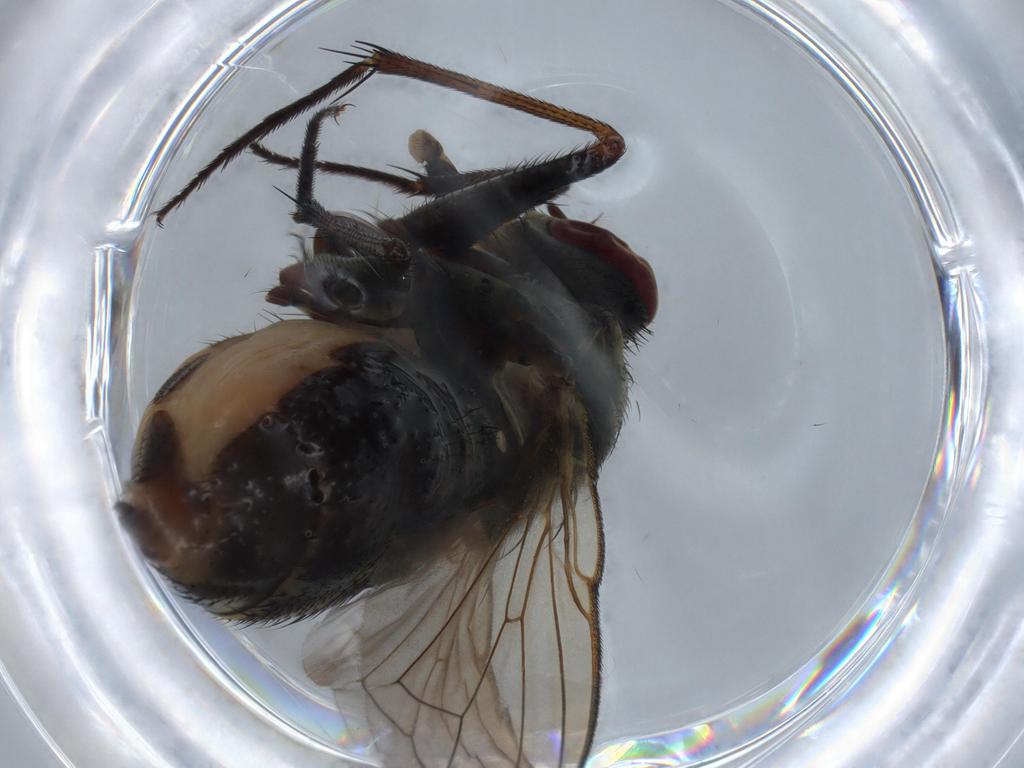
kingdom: Animalia
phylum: Arthropoda
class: Insecta
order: Diptera
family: Chloropidae
